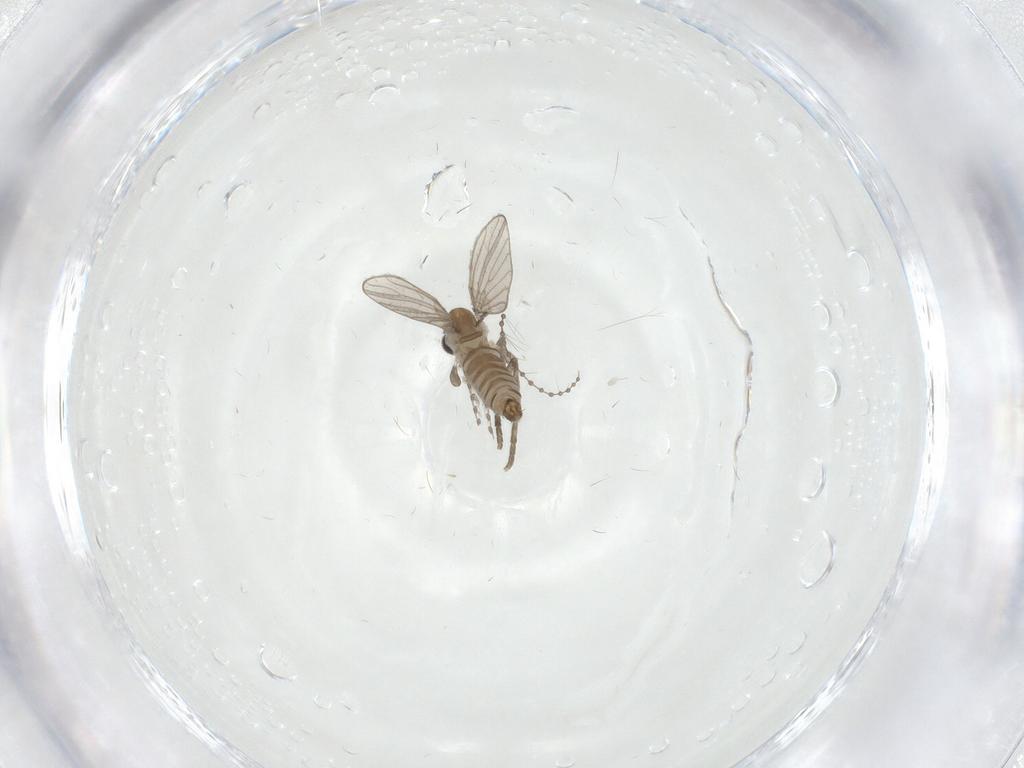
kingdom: Animalia
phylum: Arthropoda
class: Insecta
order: Diptera
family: Psychodidae
